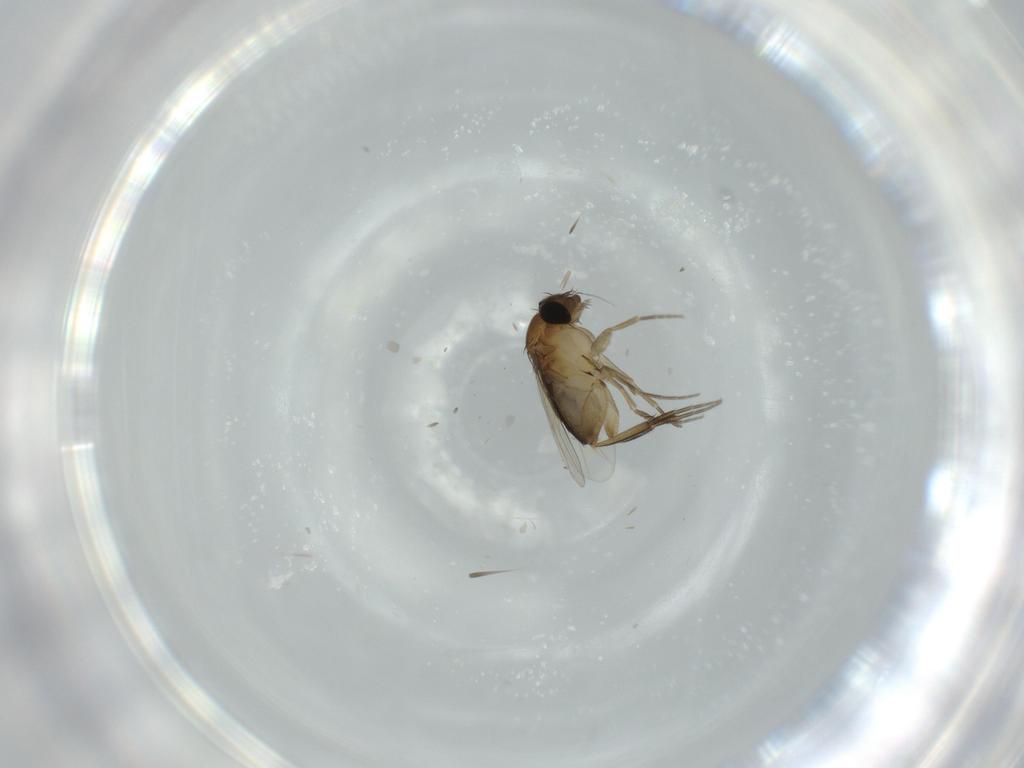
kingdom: Animalia
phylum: Arthropoda
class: Insecta
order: Diptera
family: Phoridae
